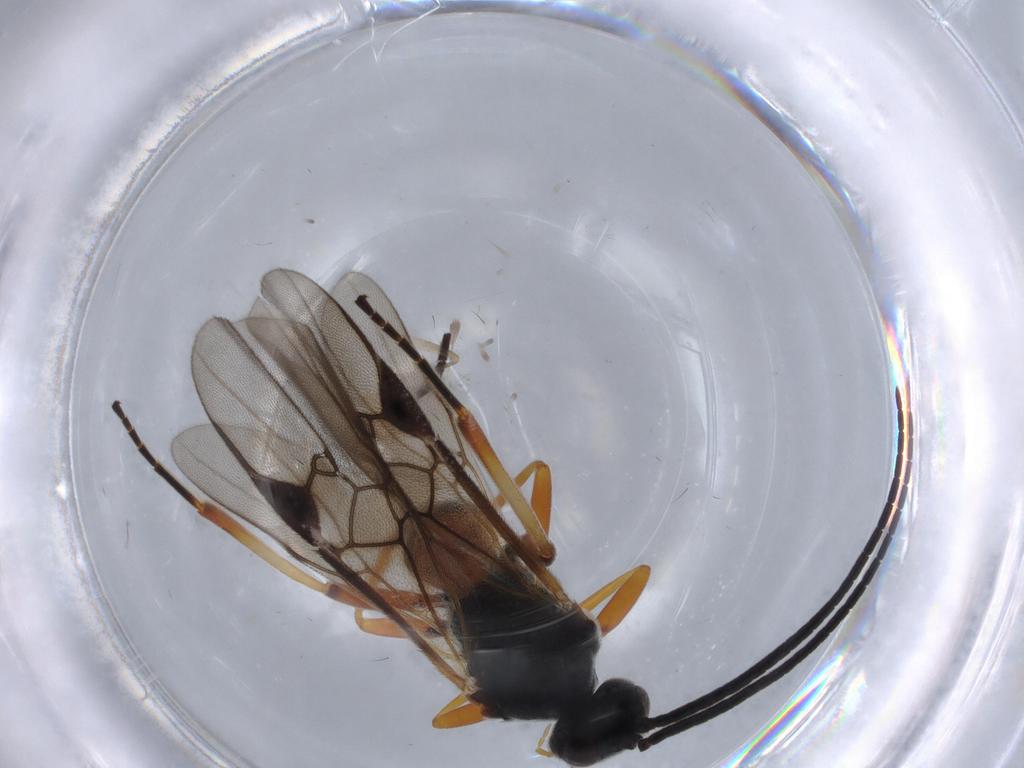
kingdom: Animalia
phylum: Arthropoda
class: Insecta
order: Hymenoptera
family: Braconidae
